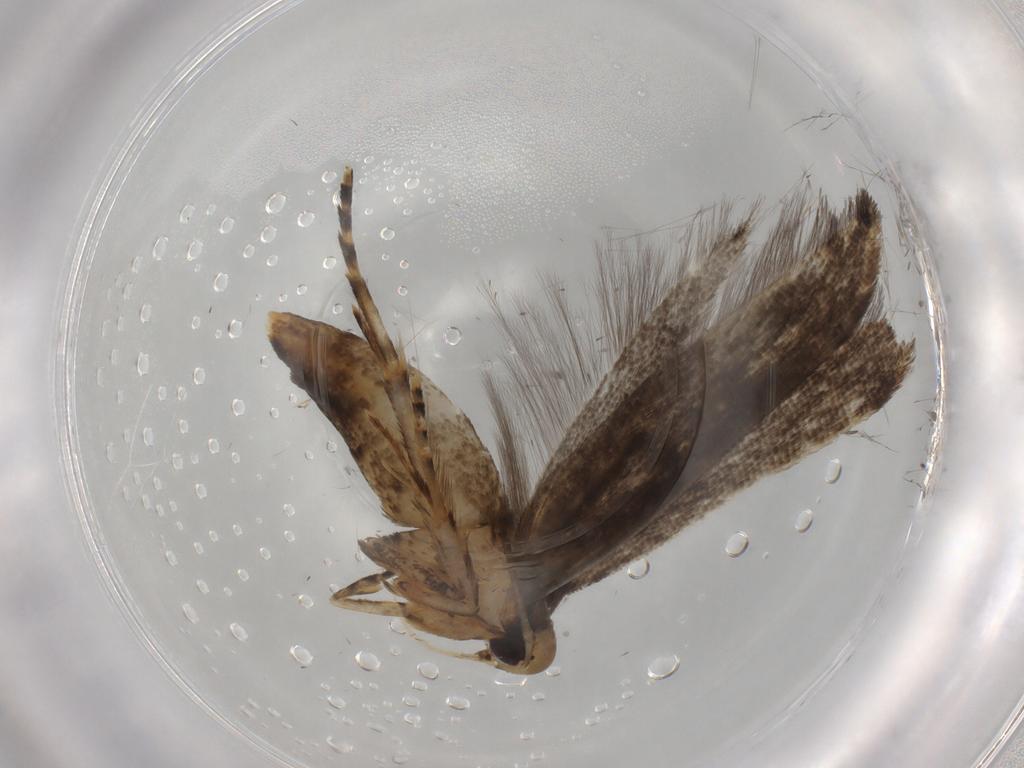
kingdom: Animalia
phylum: Arthropoda
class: Insecta
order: Lepidoptera
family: Cosmopterigidae
